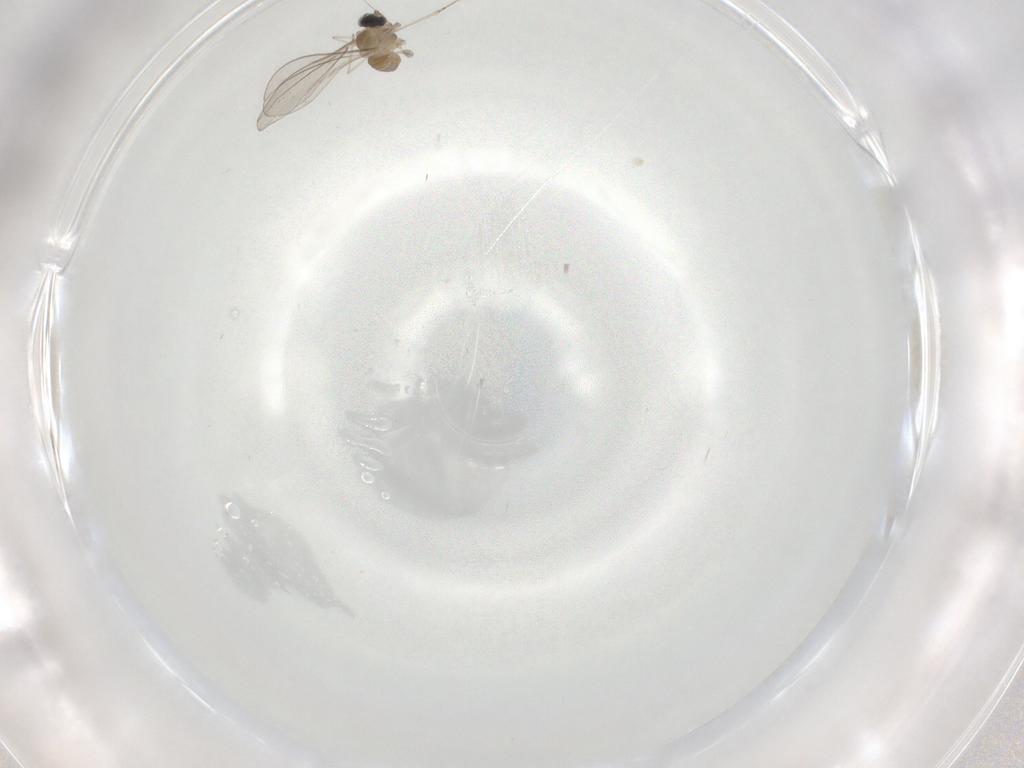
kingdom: Animalia
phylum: Arthropoda
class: Insecta
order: Diptera
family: Cecidomyiidae
